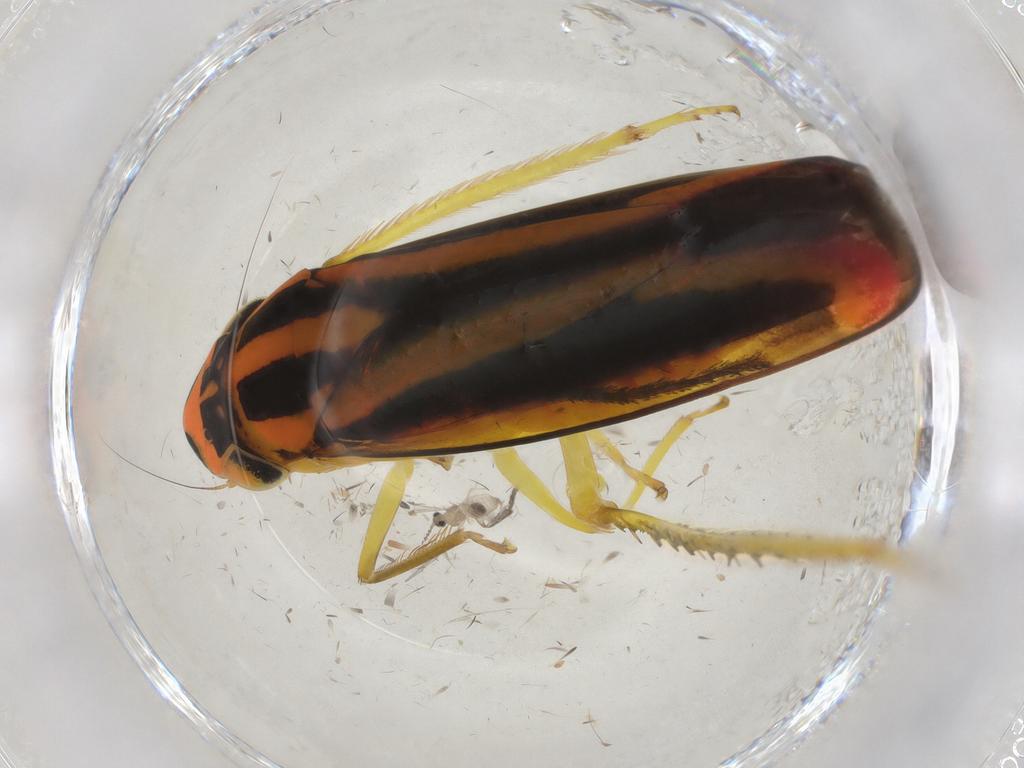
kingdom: Animalia
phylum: Arthropoda
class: Insecta
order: Hemiptera
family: Cicadellidae
